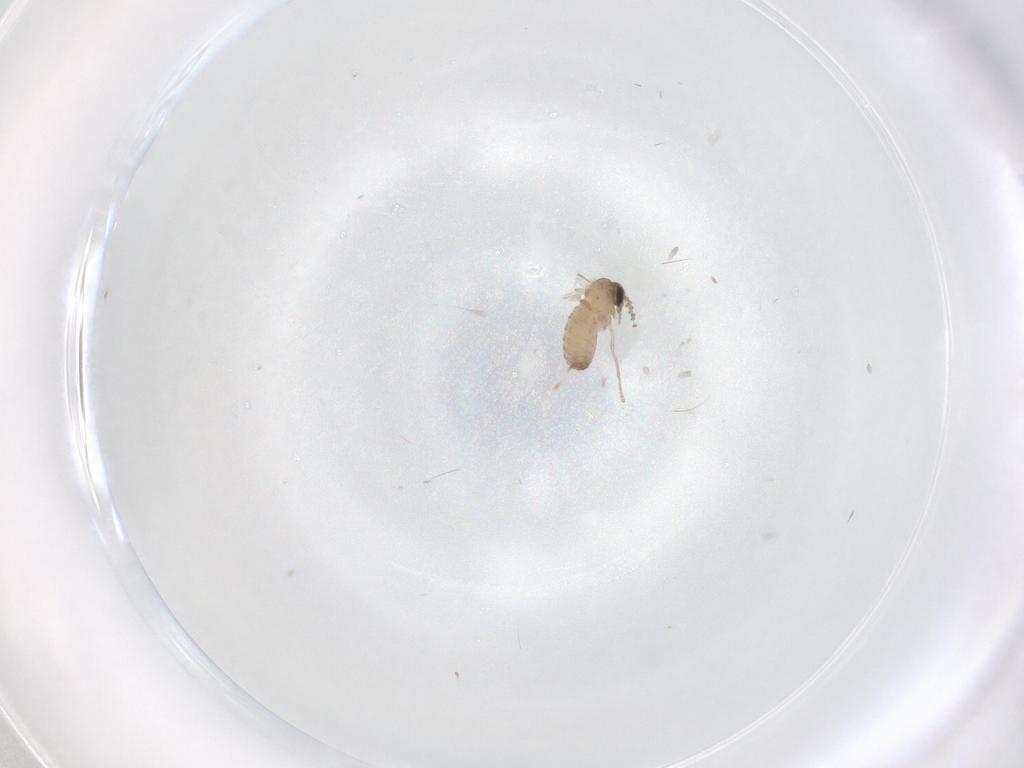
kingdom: Animalia
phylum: Arthropoda
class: Insecta
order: Diptera
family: Psychodidae
